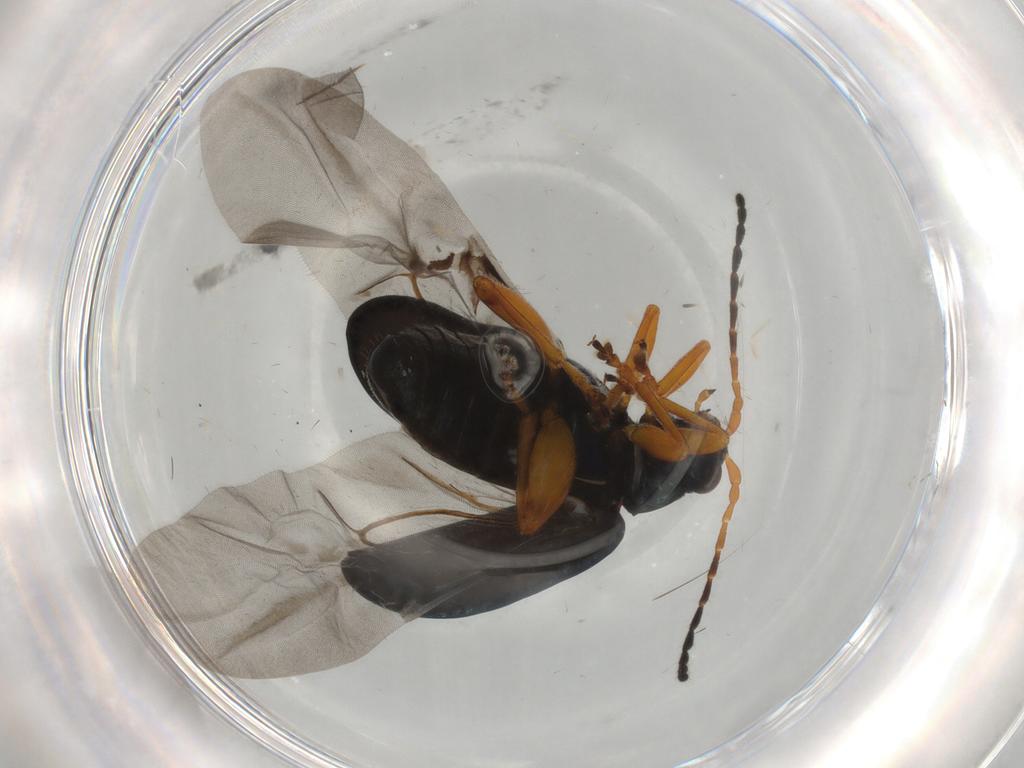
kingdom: Animalia
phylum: Arthropoda
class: Insecta
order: Coleoptera
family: Chrysomelidae
